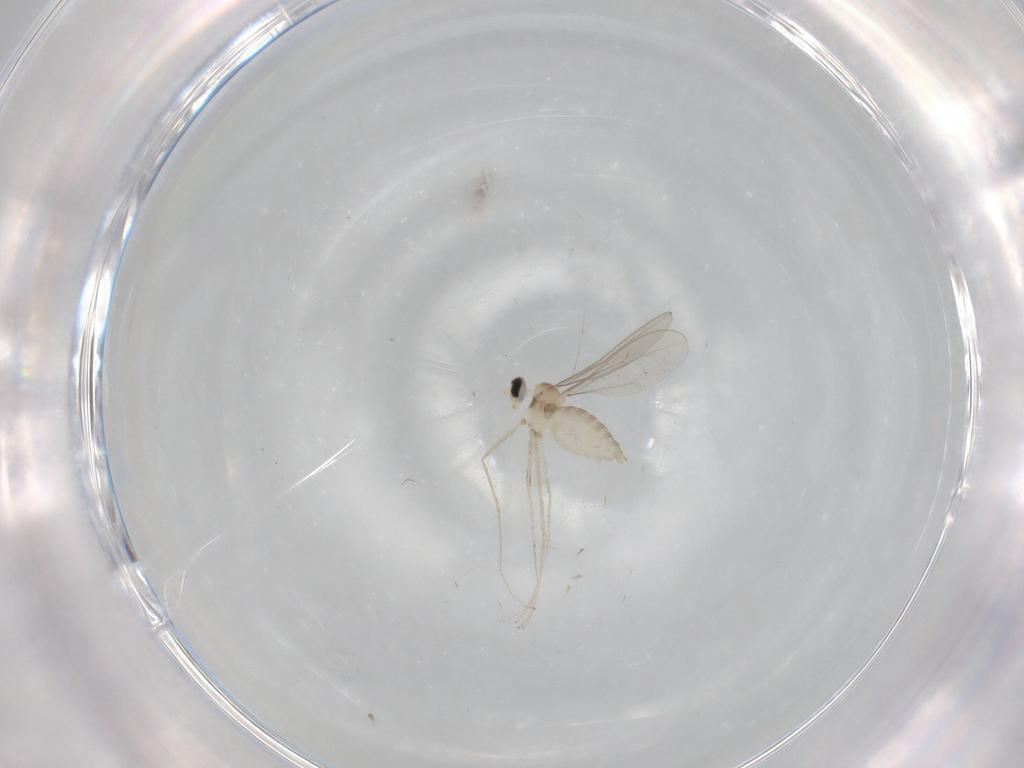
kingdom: Animalia
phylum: Arthropoda
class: Insecta
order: Diptera
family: Cecidomyiidae
